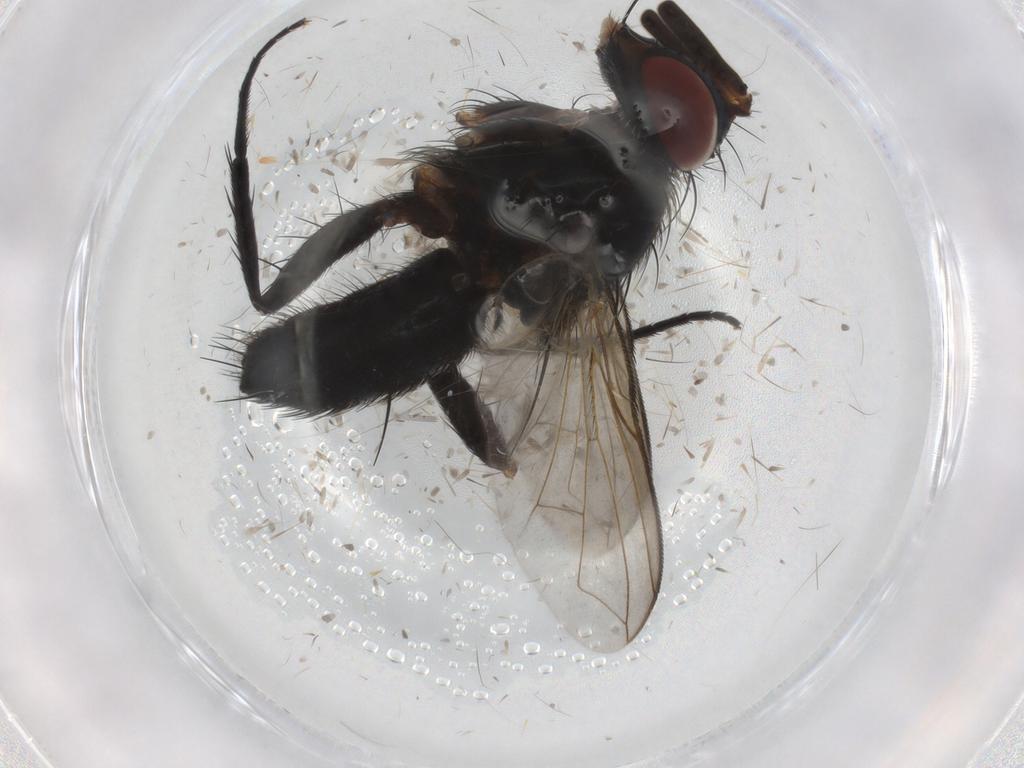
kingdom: Animalia
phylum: Arthropoda
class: Insecta
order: Diptera
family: Tachinidae
